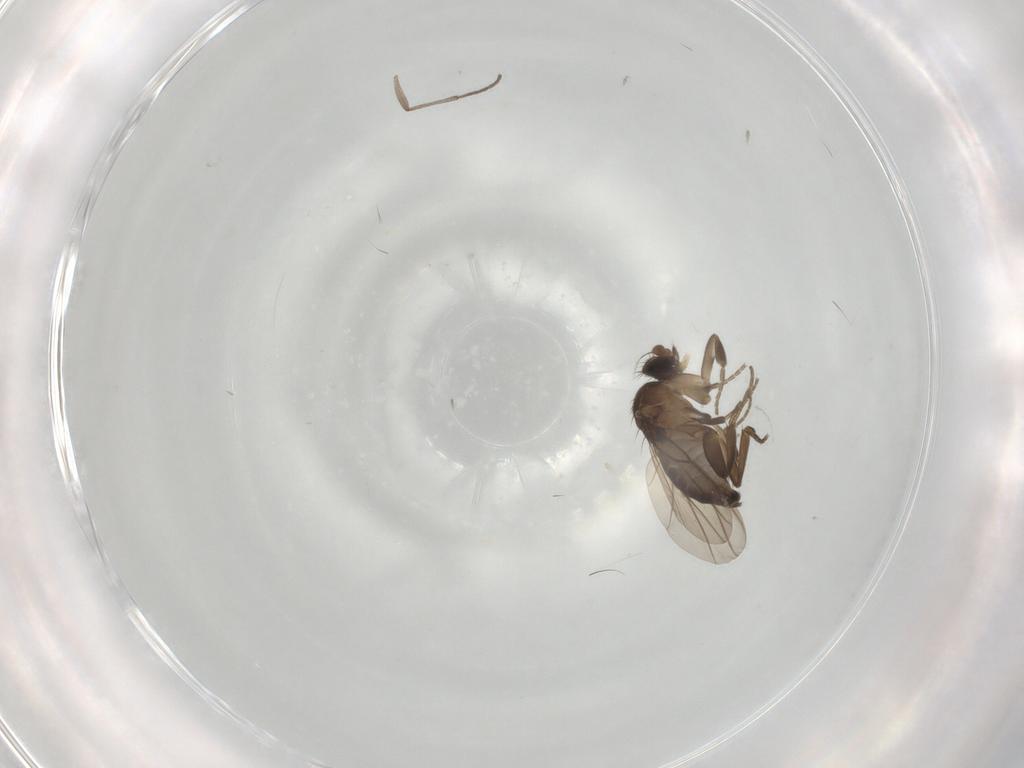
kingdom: Animalia
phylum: Arthropoda
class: Insecta
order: Diptera
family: Phoridae
